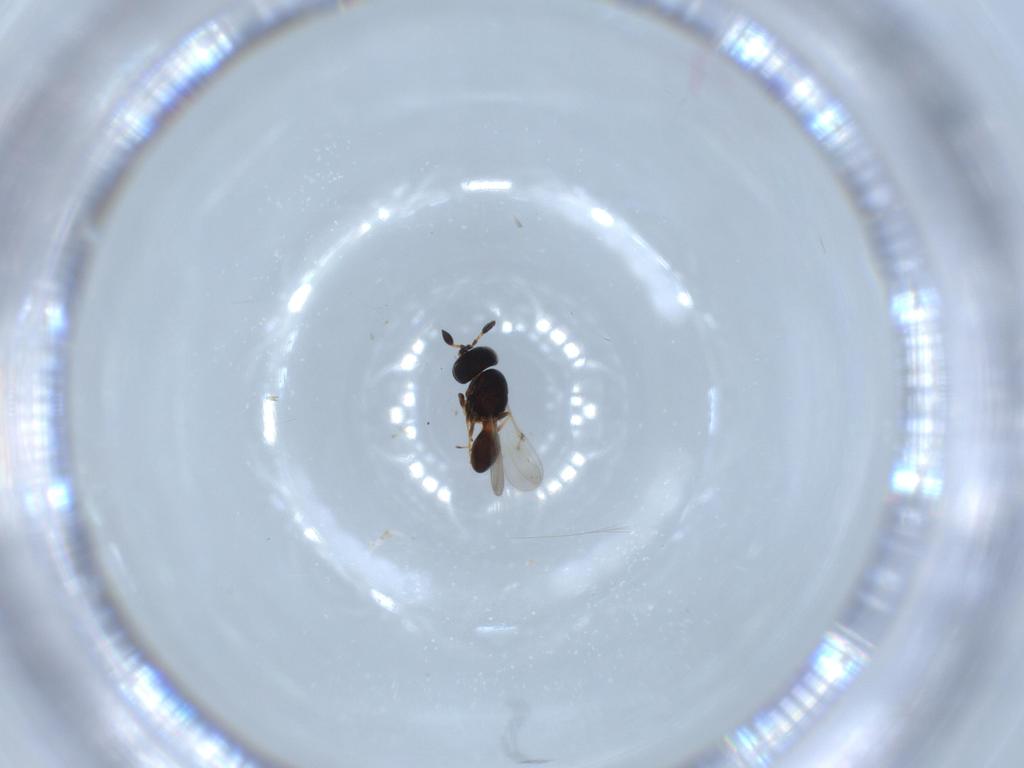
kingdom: Animalia
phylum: Arthropoda
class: Insecta
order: Hymenoptera
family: Scelionidae
